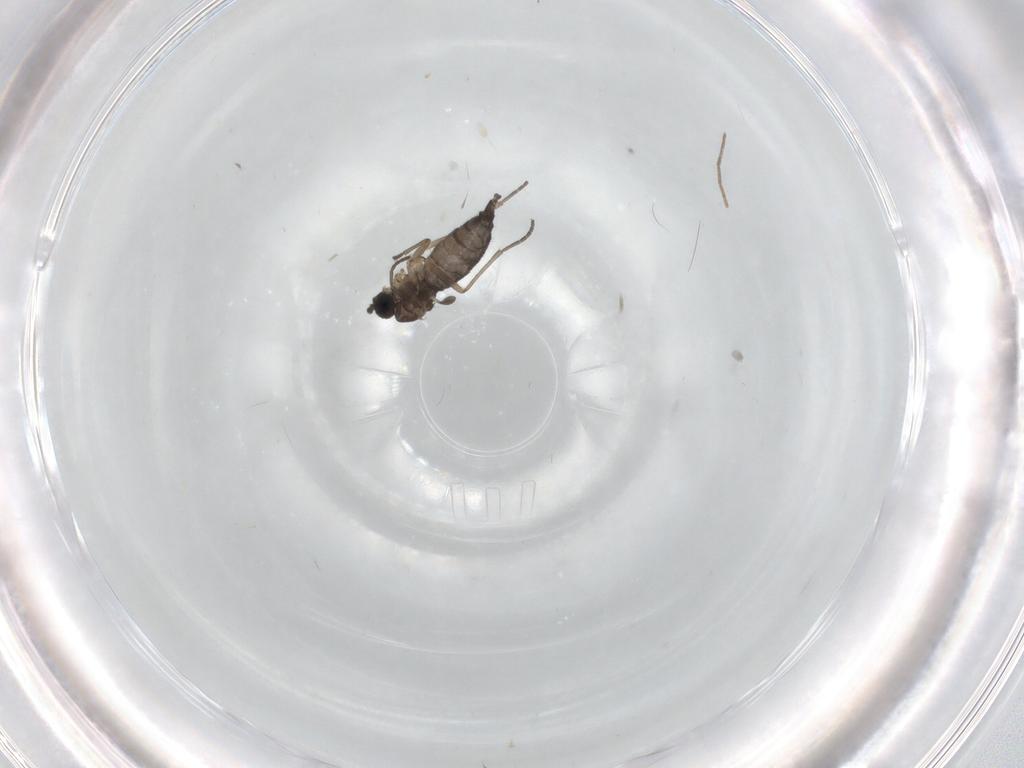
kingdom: Animalia
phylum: Arthropoda
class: Insecta
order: Diptera
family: Sciaridae
